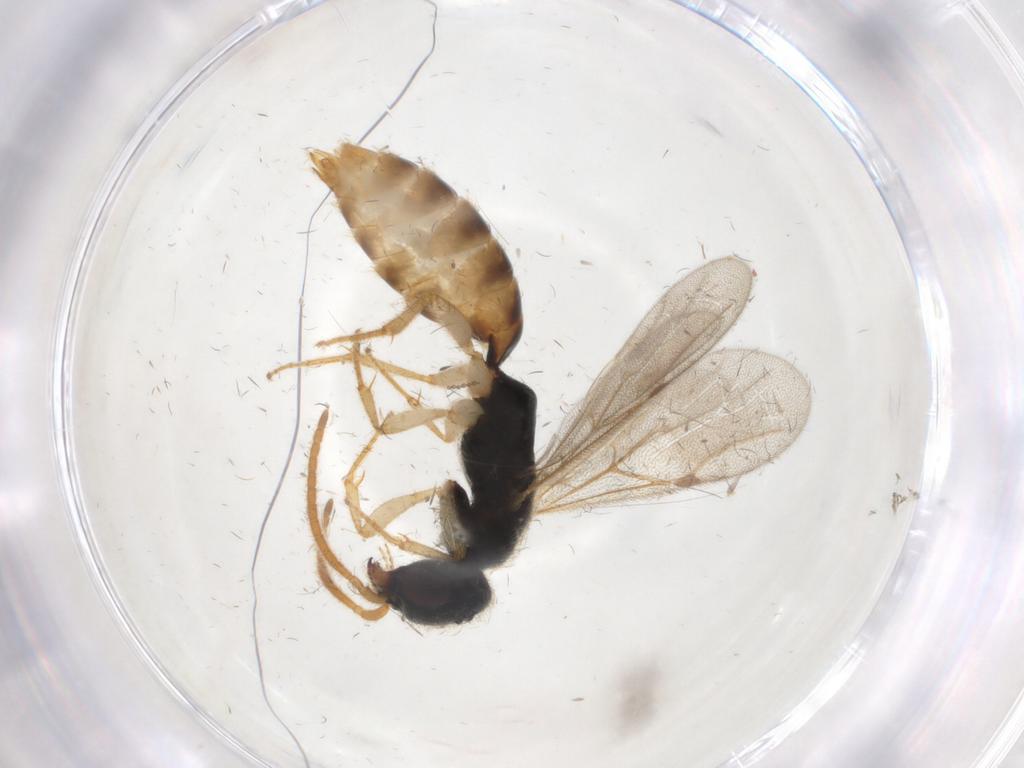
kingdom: Animalia
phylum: Arthropoda
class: Insecta
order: Hymenoptera
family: Bethylidae
